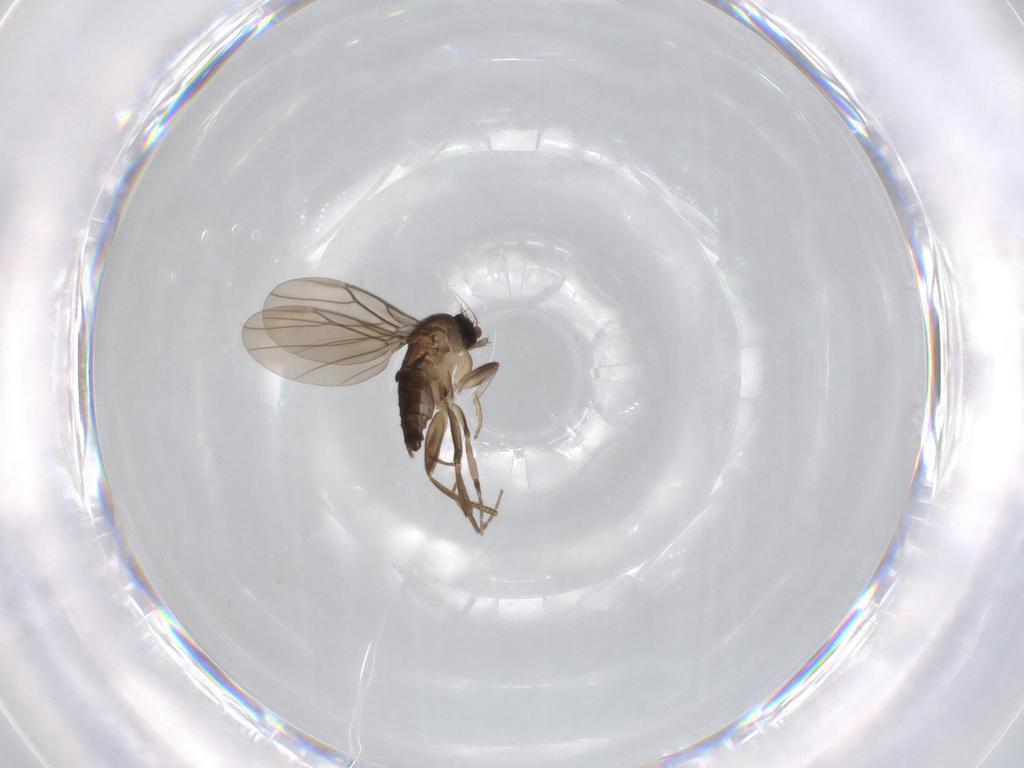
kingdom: Animalia
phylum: Arthropoda
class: Insecta
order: Diptera
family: Phoridae
